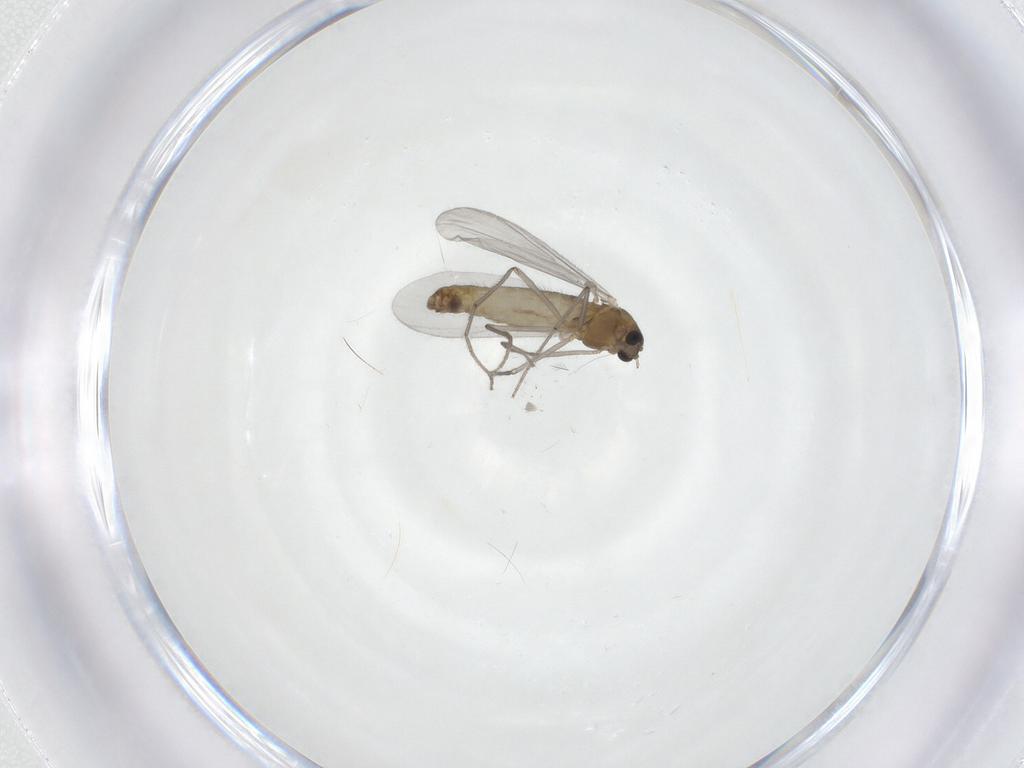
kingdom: Animalia
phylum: Arthropoda
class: Insecta
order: Diptera
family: Chironomidae
